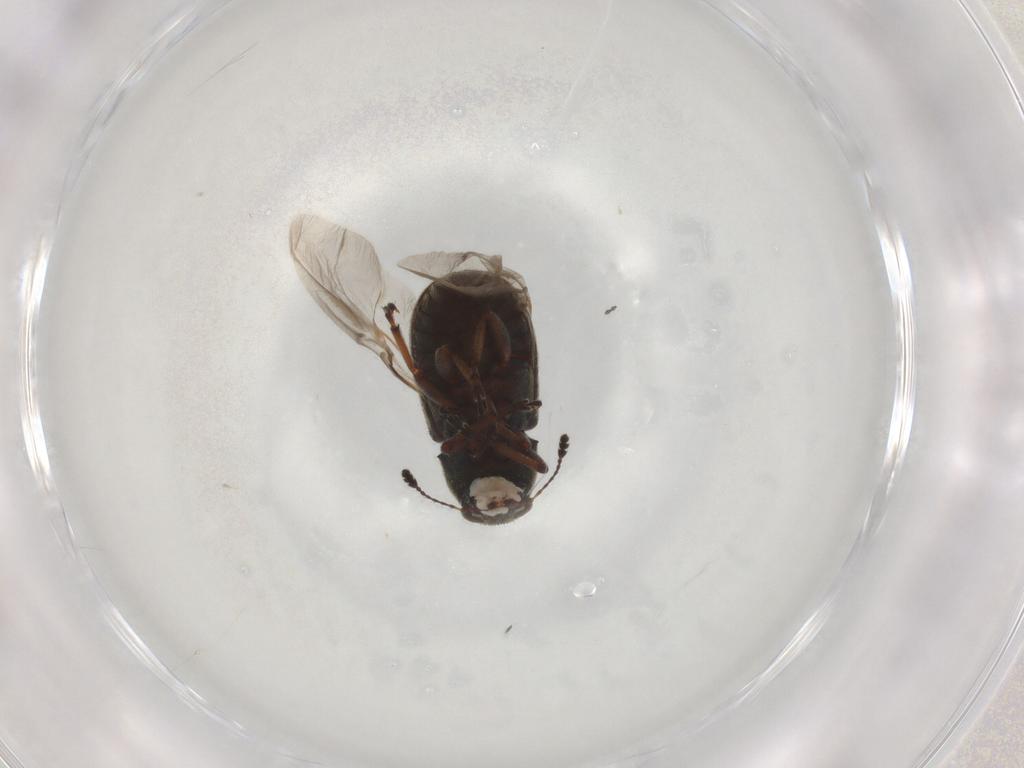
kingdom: Animalia
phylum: Arthropoda
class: Insecta
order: Coleoptera
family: Anthribidae
